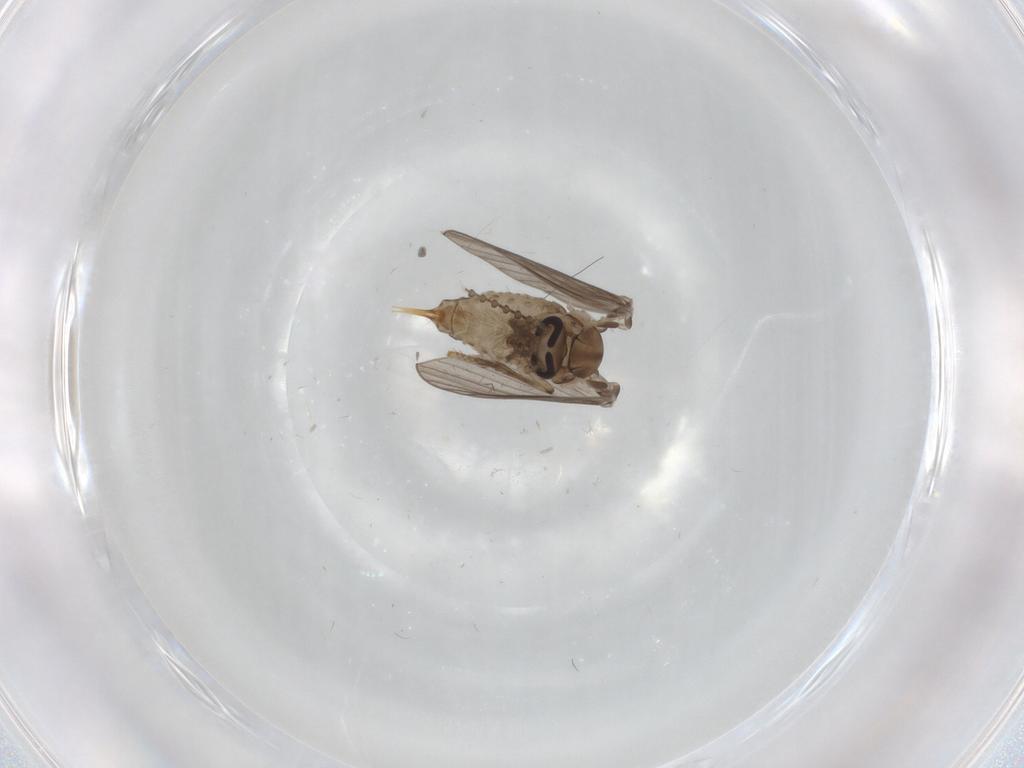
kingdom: Animalia
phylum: Arthropoda
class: Insecta
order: Diptera
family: Psychodidae
